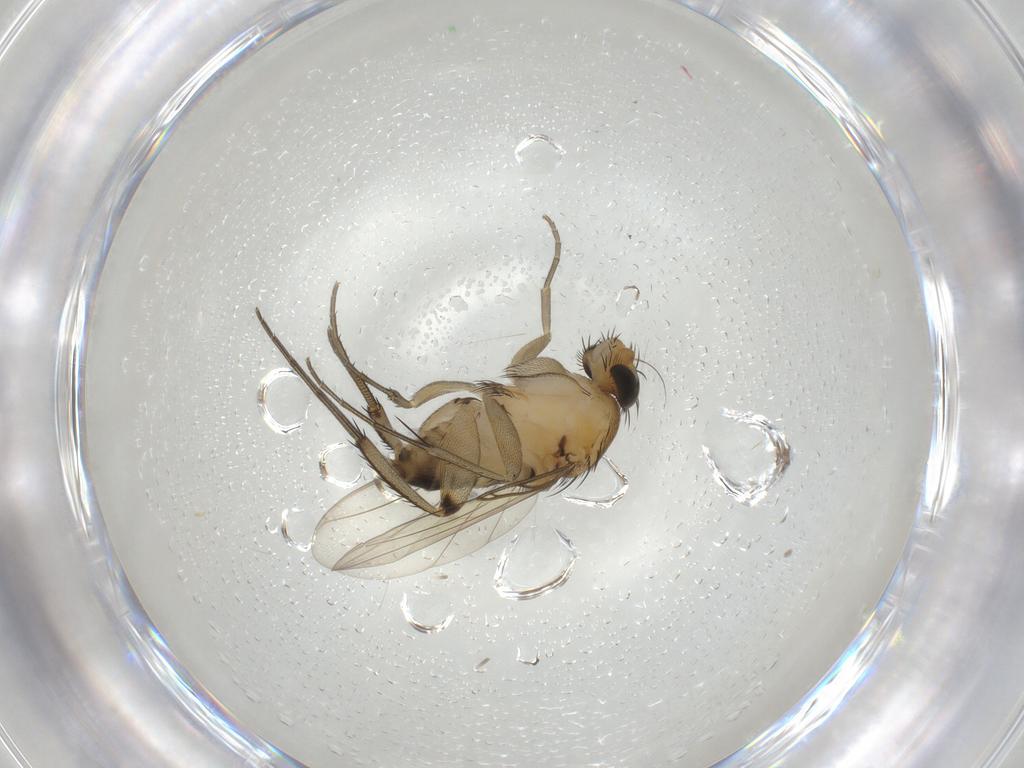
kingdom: Animalia
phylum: Arthropoda
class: Insecta
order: Diptera
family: Phoridae
